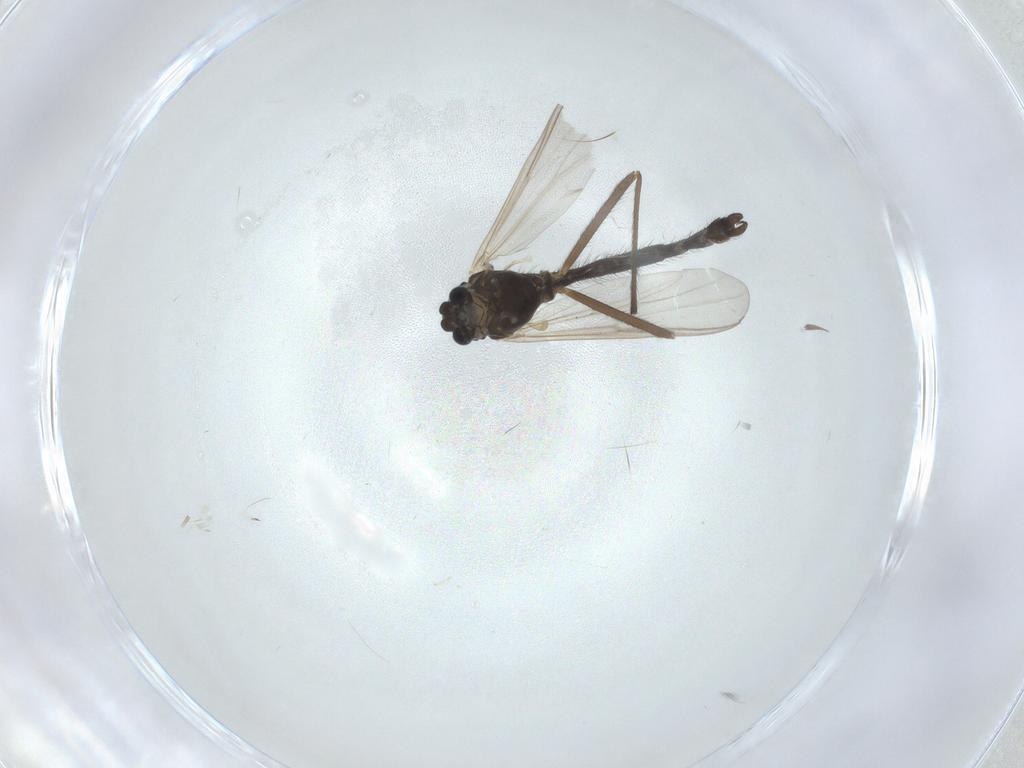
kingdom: Animalia
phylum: Arthropoda
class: Insecta
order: Diptera
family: Chironomidae
